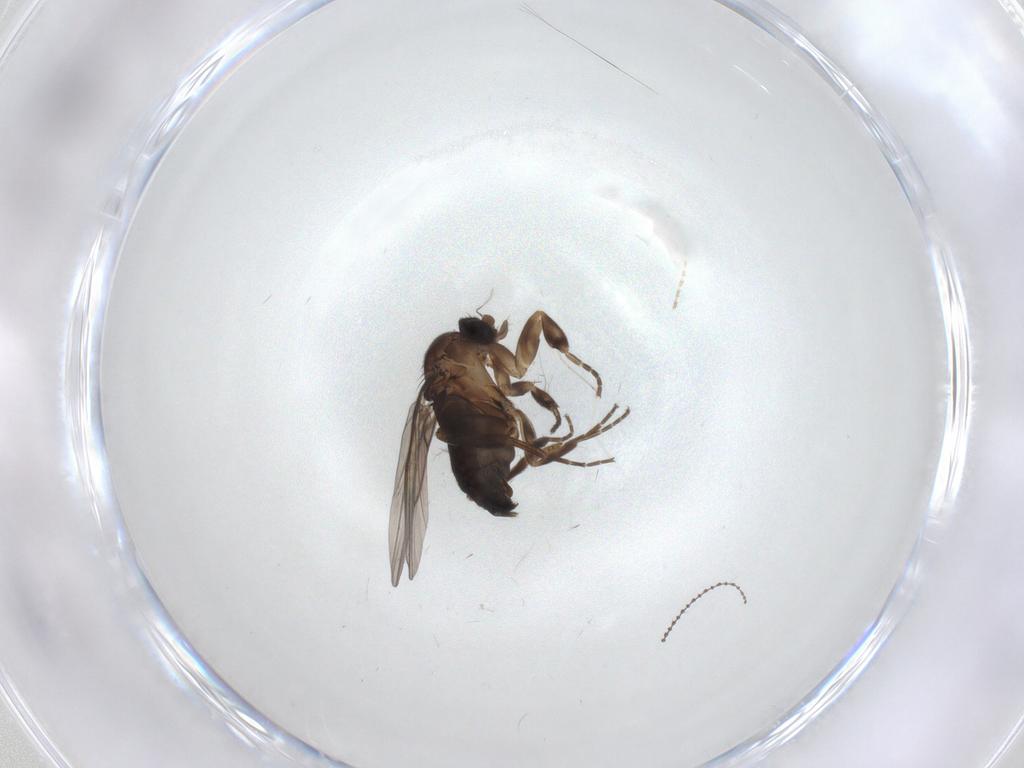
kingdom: Animalia
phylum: Arthropoda
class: Insecta
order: Diptera
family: Phoridae
